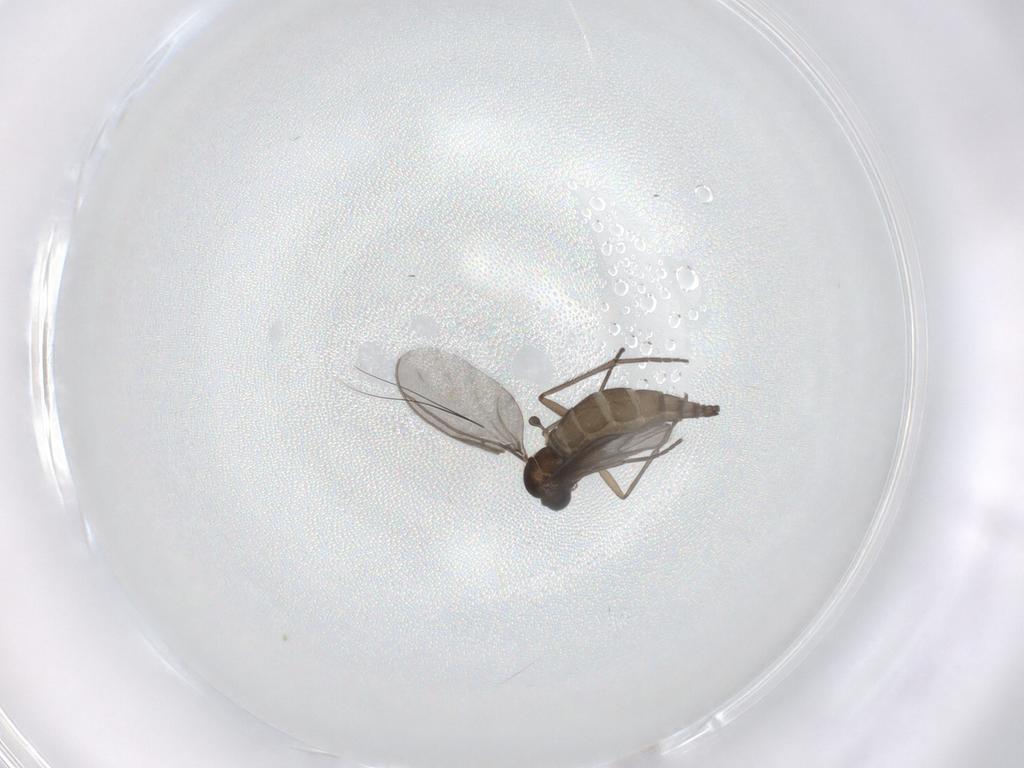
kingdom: Animalia
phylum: Arthropoda
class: Insecta
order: Diptera
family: Sciaridae
